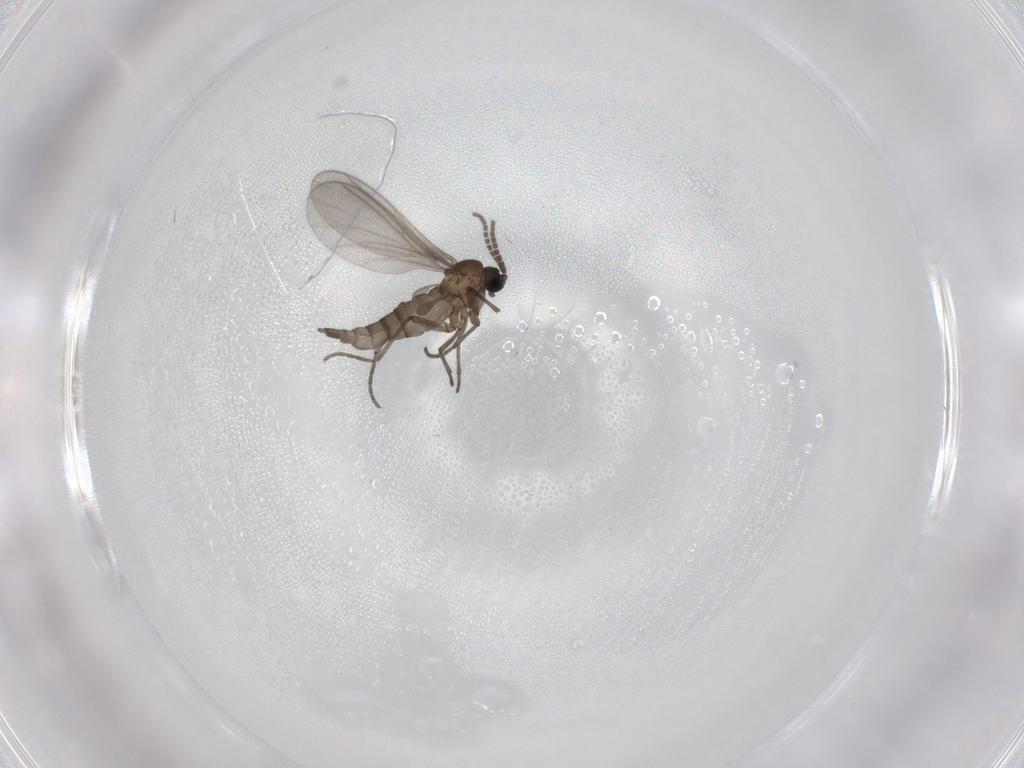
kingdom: Animalia
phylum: Arthropoda
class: Insecta
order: Diptera
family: Sciaridae
